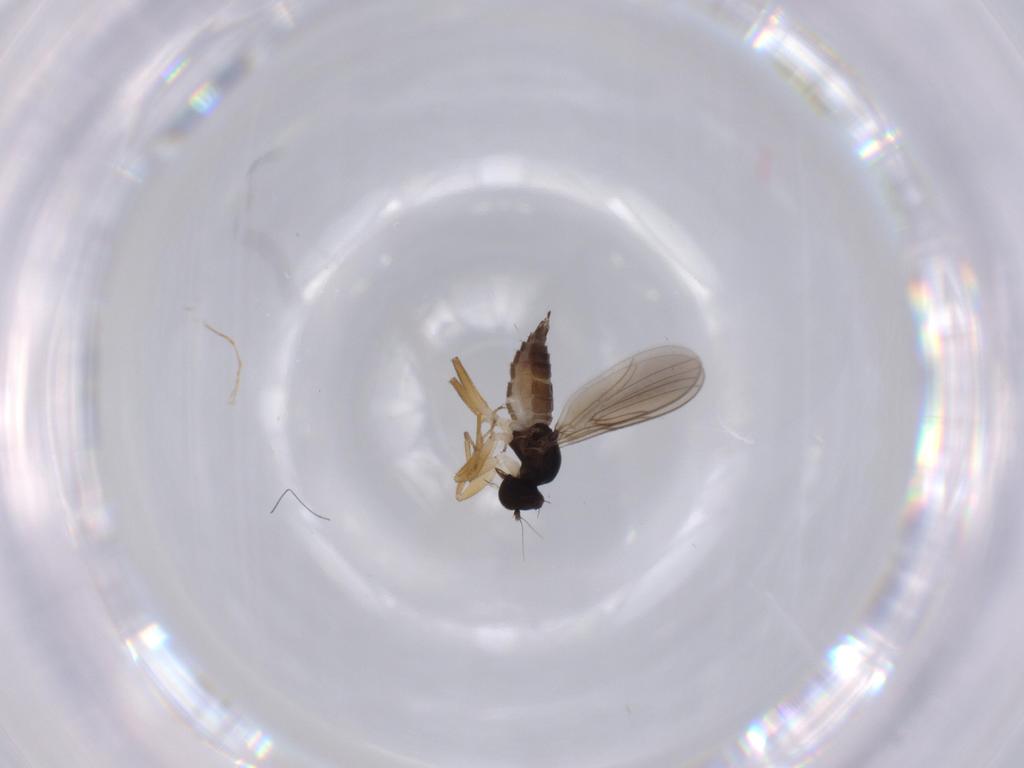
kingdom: Animalia
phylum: Arthropoda
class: Insecta
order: Diptera
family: Hybotidae
